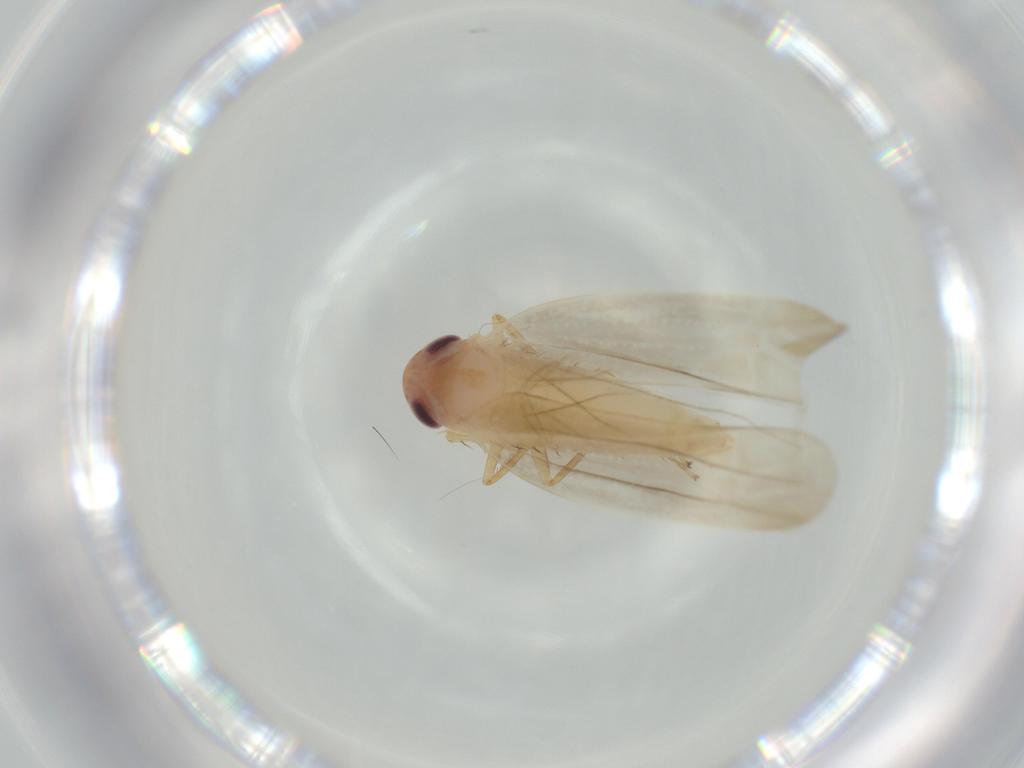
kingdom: Animalia
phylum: Arthropoda
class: Insecta
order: Hemiptera
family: Cicadellidae
